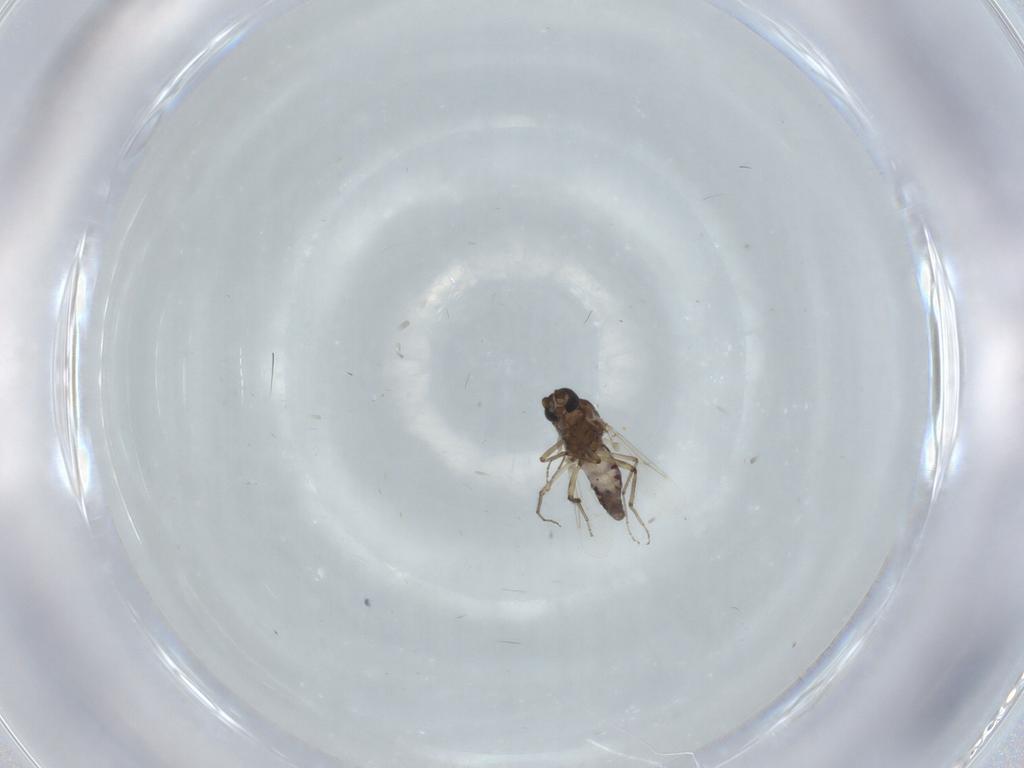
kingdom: Animalia
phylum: Arthropoda
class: Insecta
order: Diptera
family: Ceratopogonidae
